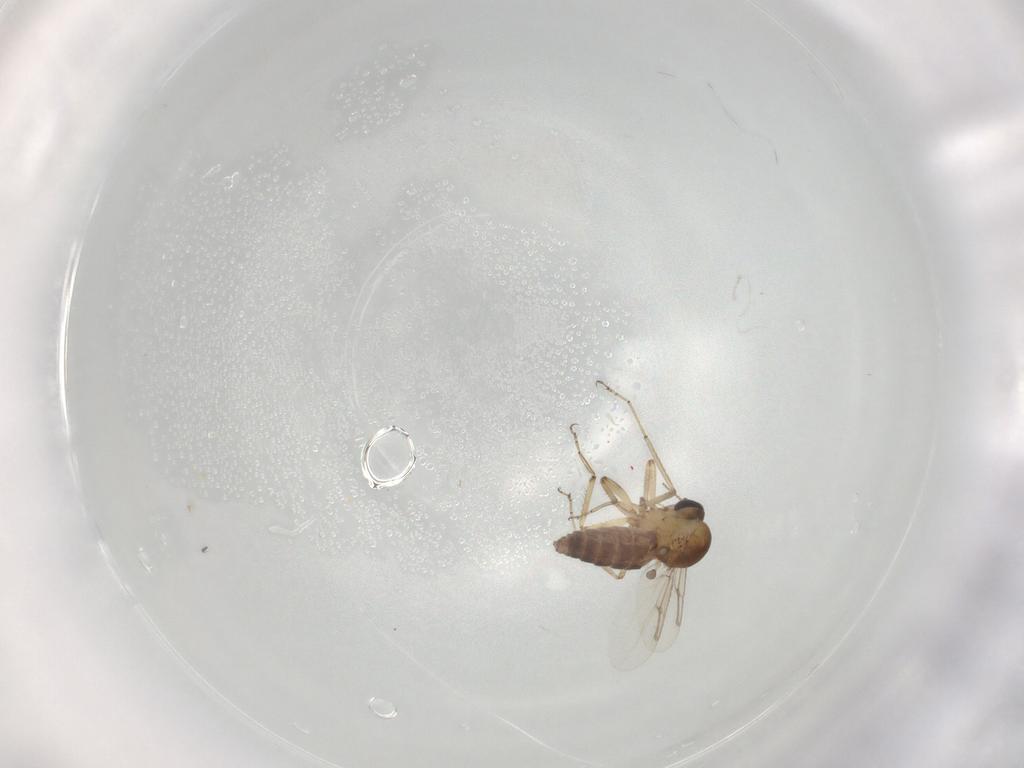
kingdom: Animalia
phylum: Arthropoda
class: Insecta
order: Diptera
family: Ceratopogonidae
